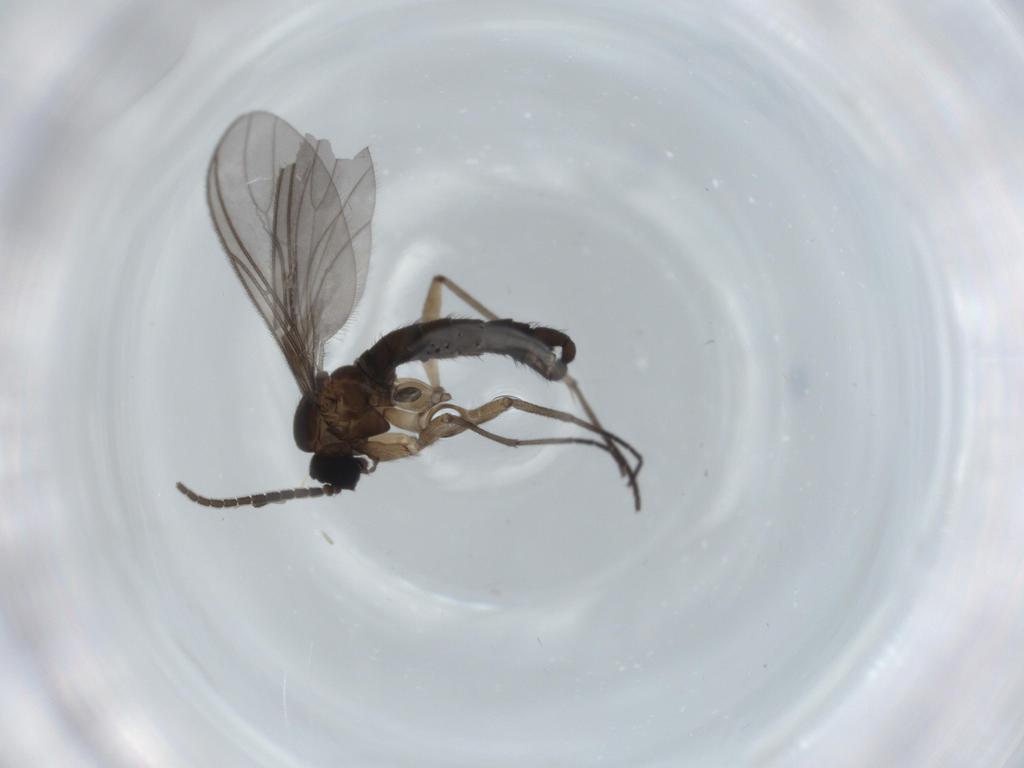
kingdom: Animalia
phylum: Arthropoda
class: Insecta
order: Diptera
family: Sciaridae
